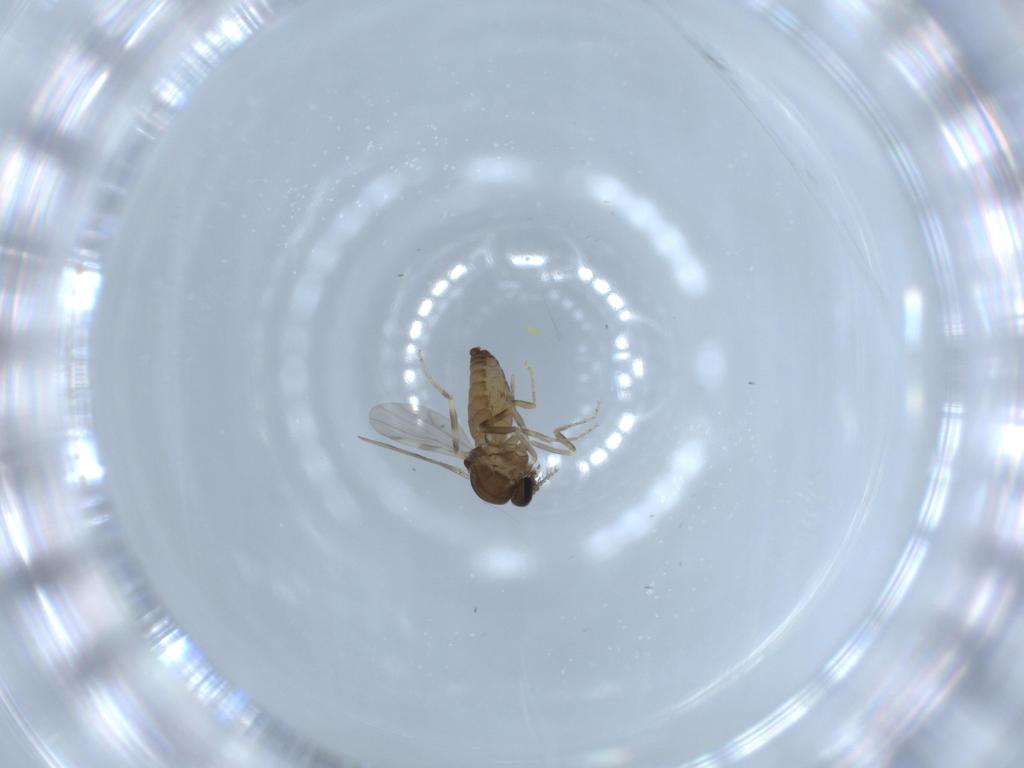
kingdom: Animalia
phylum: Arthropoda
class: Insecta
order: Diptera
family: Ceratopogonidae
